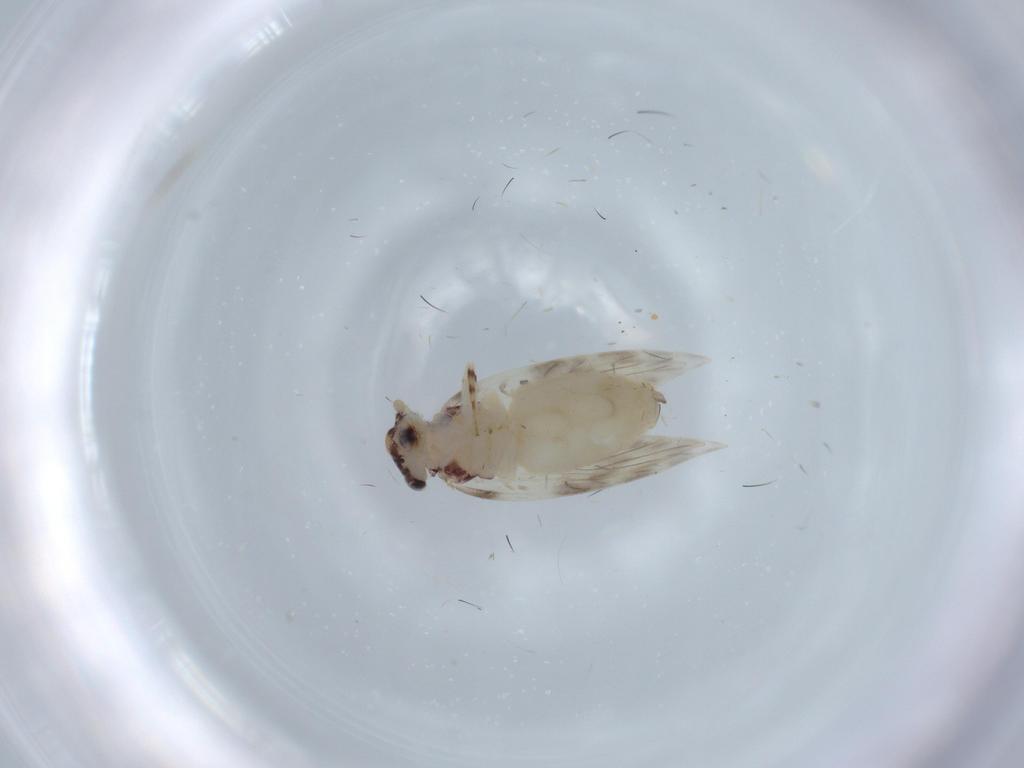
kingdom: Animalia
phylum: Arthropoda
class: Insecta
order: Psocodea
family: Lepidopsocidae
